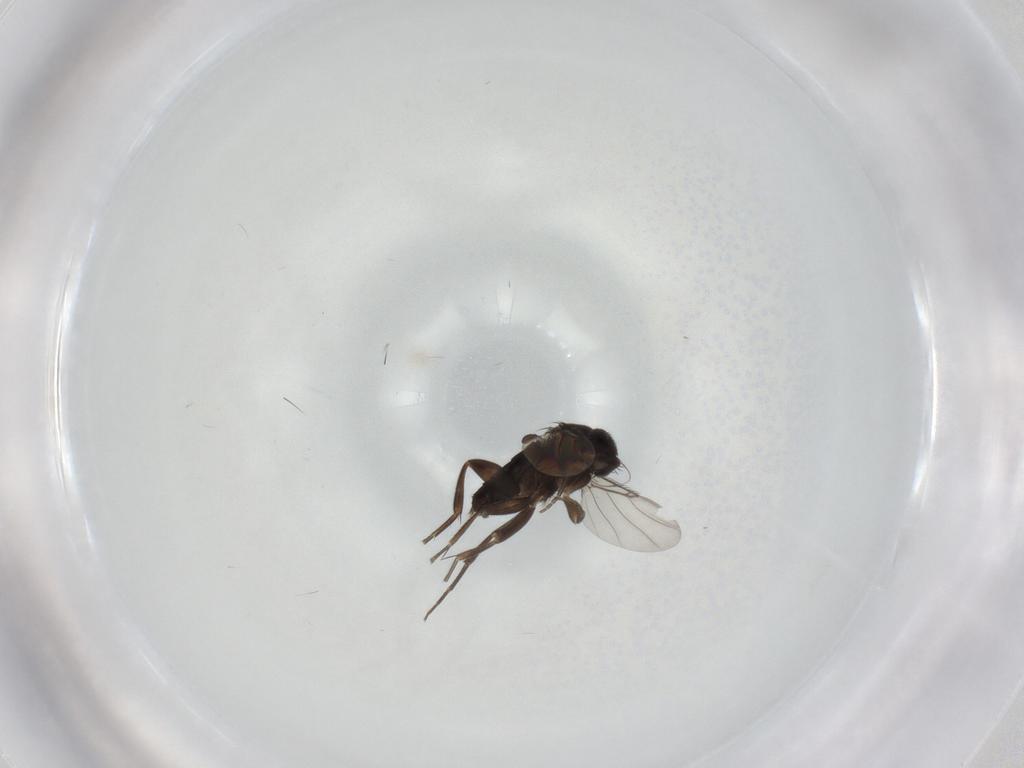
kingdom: Animalia
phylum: Arthropoda
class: Insecta
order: Diptera
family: Phoridae
